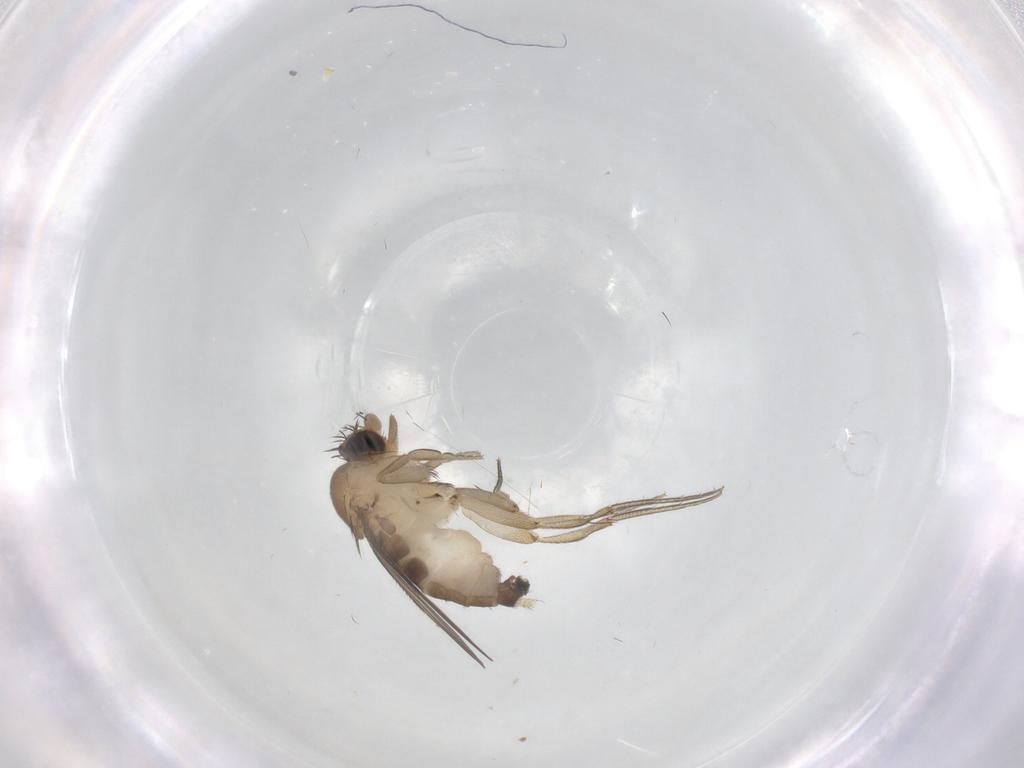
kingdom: Animalia
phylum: Arthropoda
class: Insecta
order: Diptera
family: Phoridae
